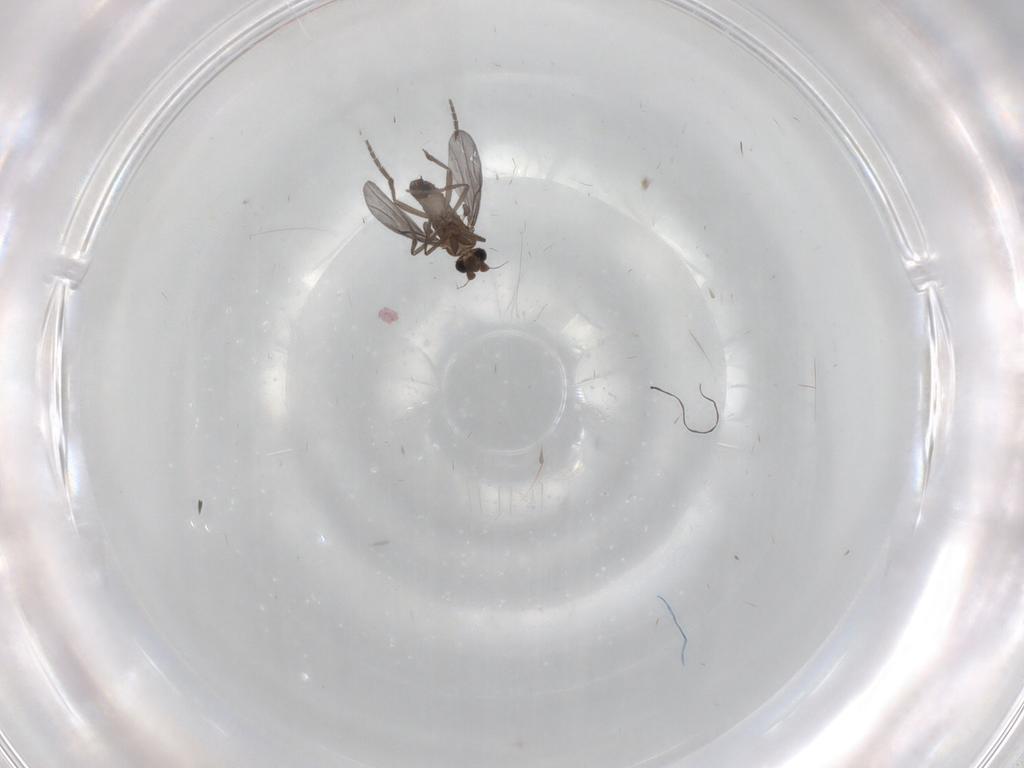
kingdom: Animalia
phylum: Arthropoda
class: Insecta
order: Diptera
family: Phoridae
